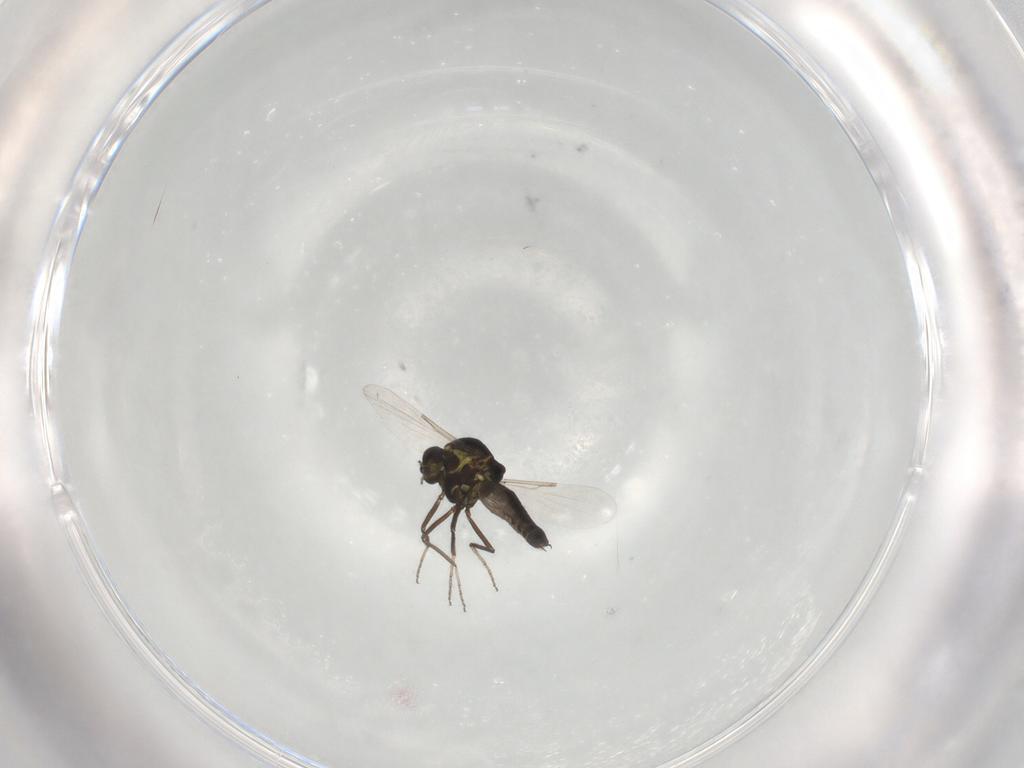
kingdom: Animalia
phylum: Arthropoda
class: Insecta
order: Diptera
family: Ceratopogonidae
